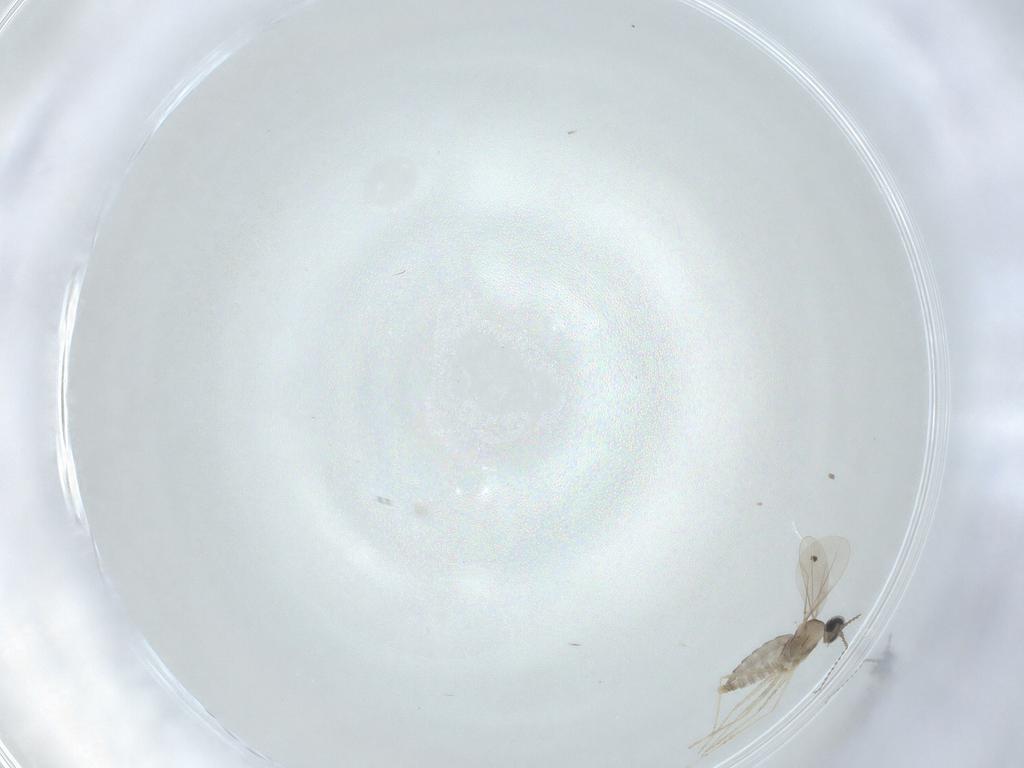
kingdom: Animalia
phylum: Arthropoda
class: Insecta
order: Diptera
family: Cecidomyiidae
